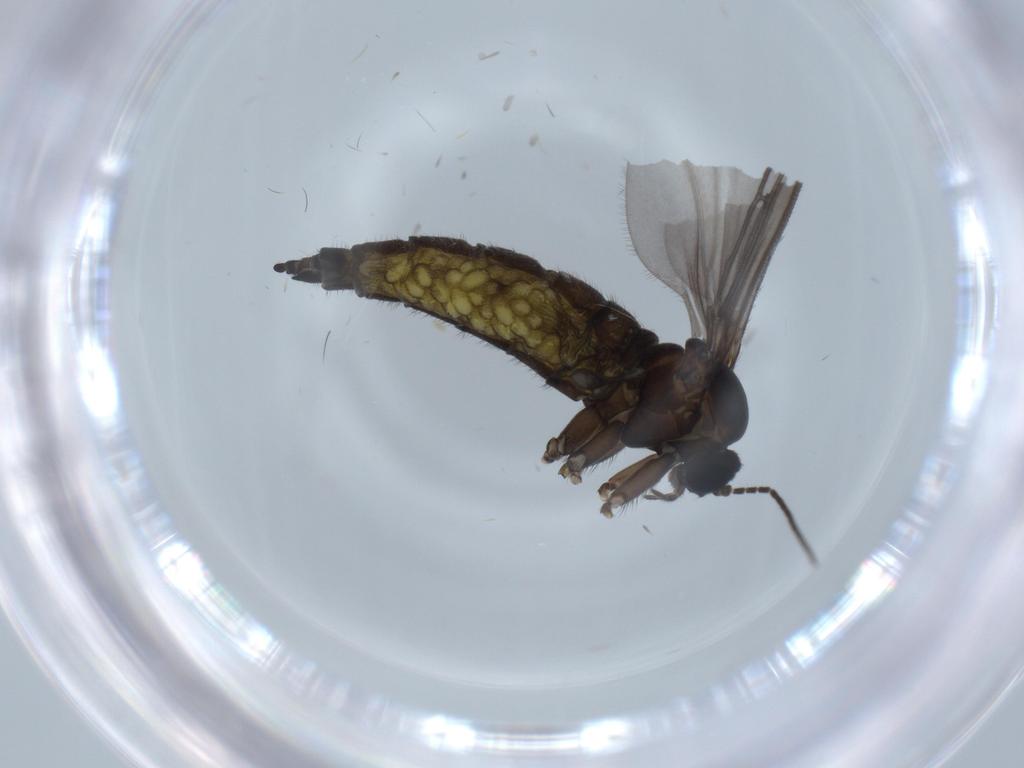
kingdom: Animalia
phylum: Arthropoda
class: Insecta
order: Diptera
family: Sciaridae
